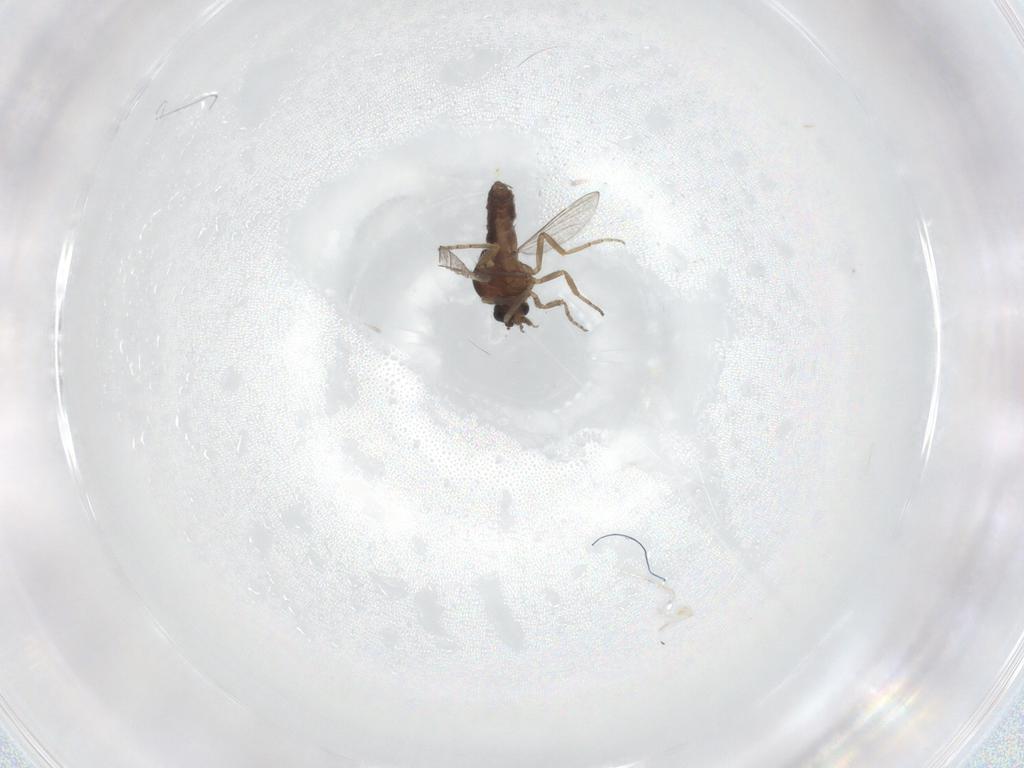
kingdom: Animalia
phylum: Arthropoda
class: Insecta
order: Diptera
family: Ceratopogonidae
